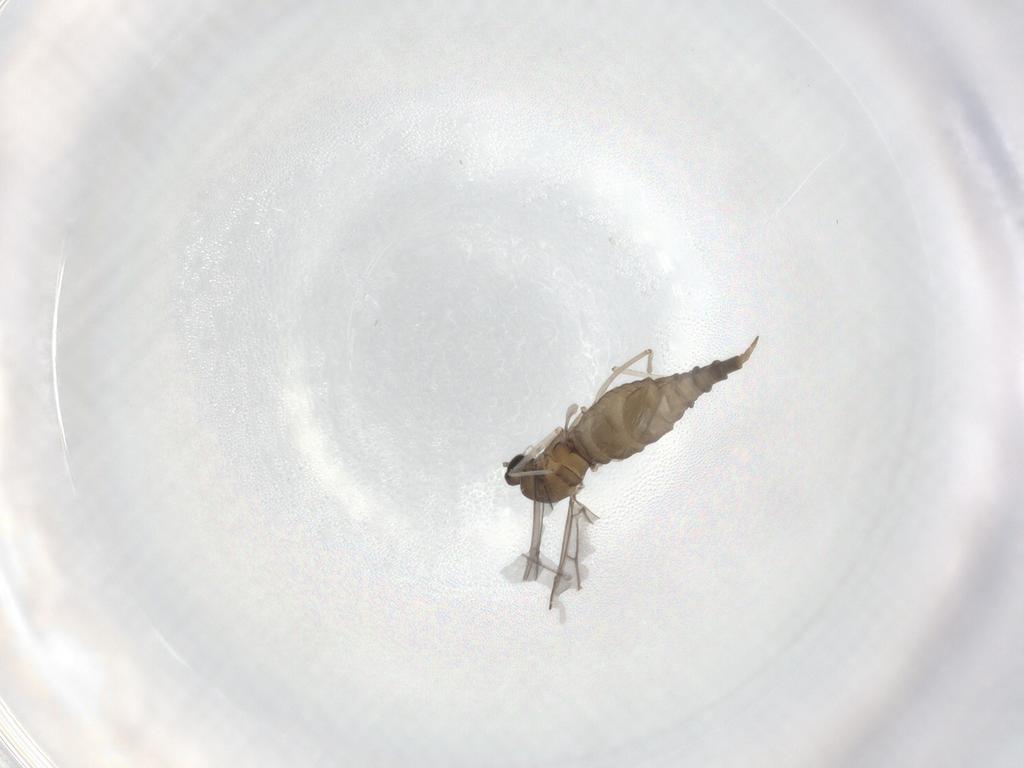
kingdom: Animalia
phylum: Arthropoda
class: Insecta
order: Diptera
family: Cecidomyiidae
